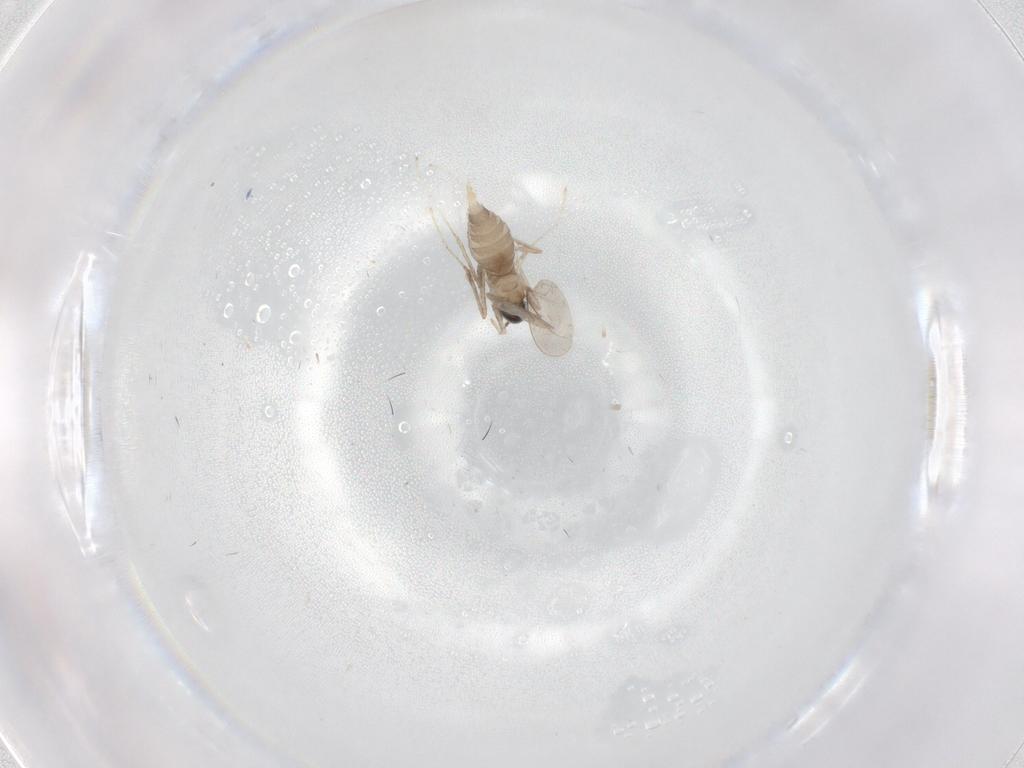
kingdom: Animalia
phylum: Arthropoda
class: Insecta
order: Diptera
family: Cecidomyiidae
